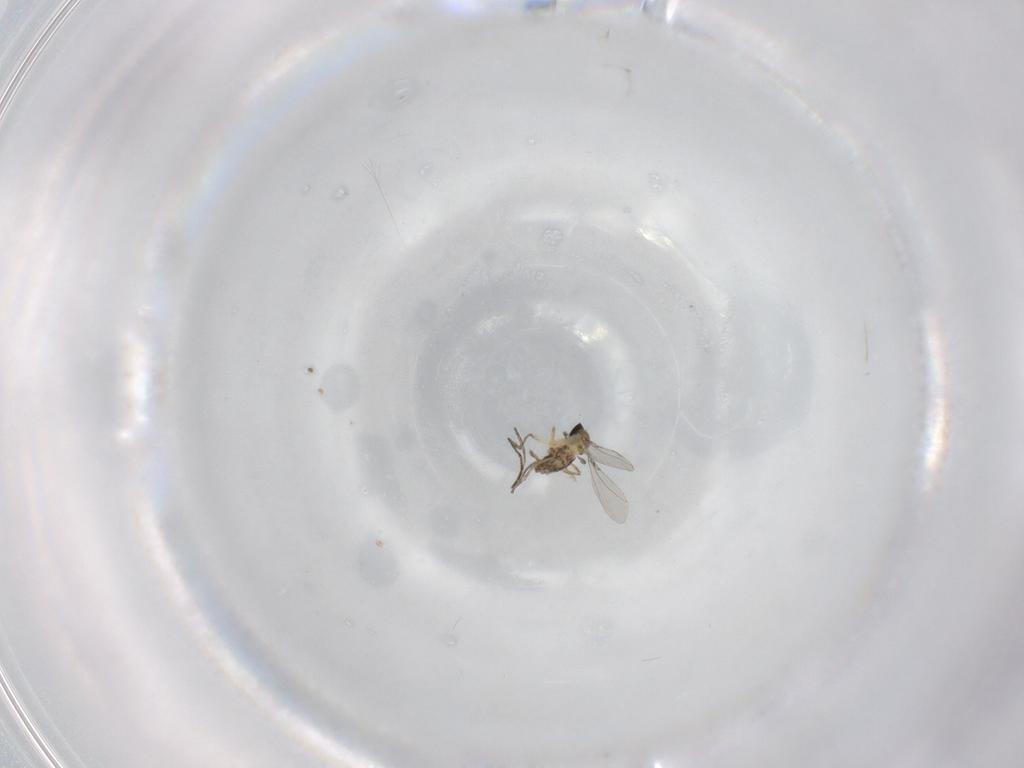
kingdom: Animalia
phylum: Arthropoda
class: Insecta
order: Diptera
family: Cecidomyiidae
